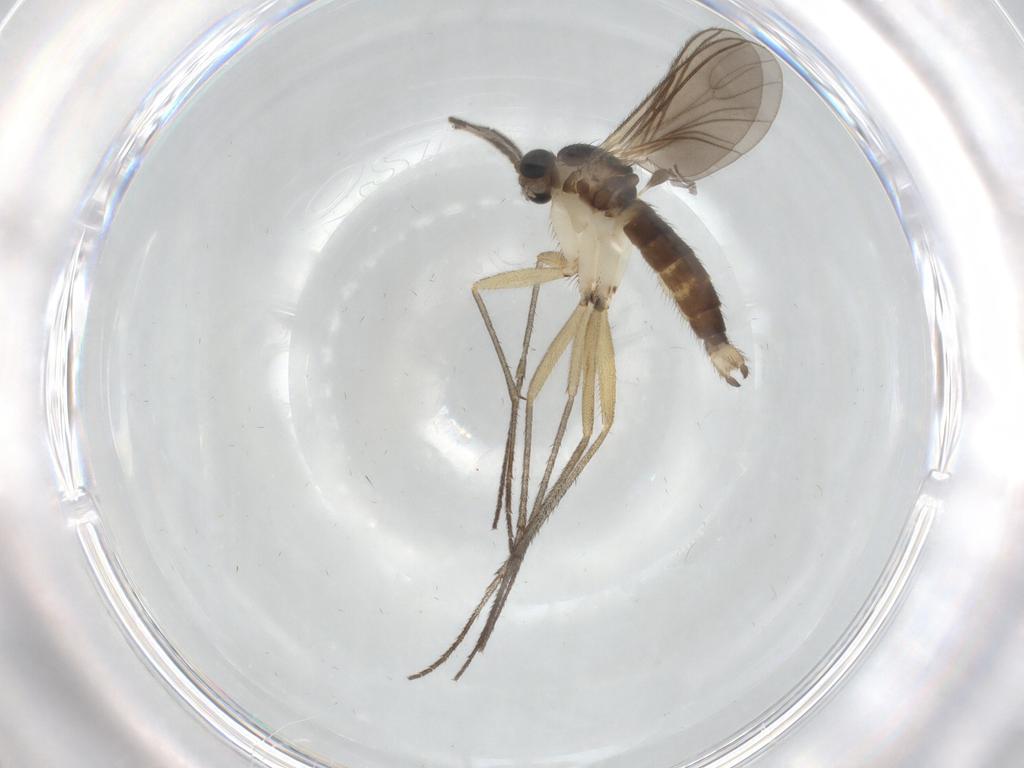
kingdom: Animalia
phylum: Arthropoda
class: Insecta
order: Diptera
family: Sciaridae
